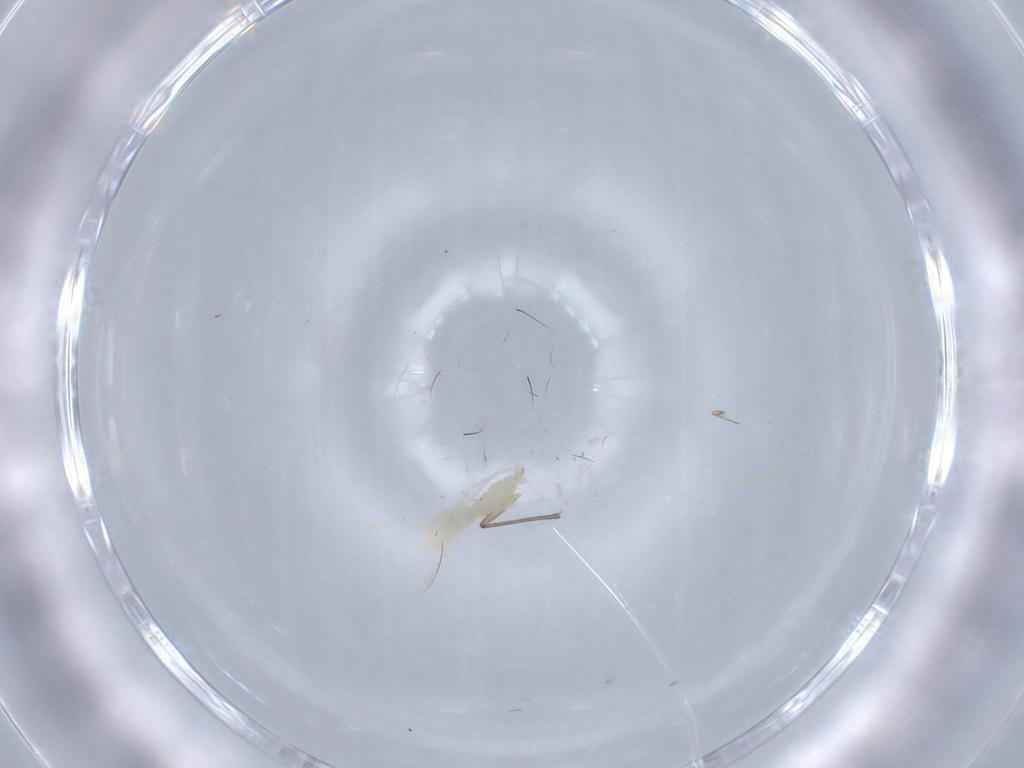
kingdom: Animalia
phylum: Arthropoda
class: Insecta
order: Diptera
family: Cecidomyiidae
